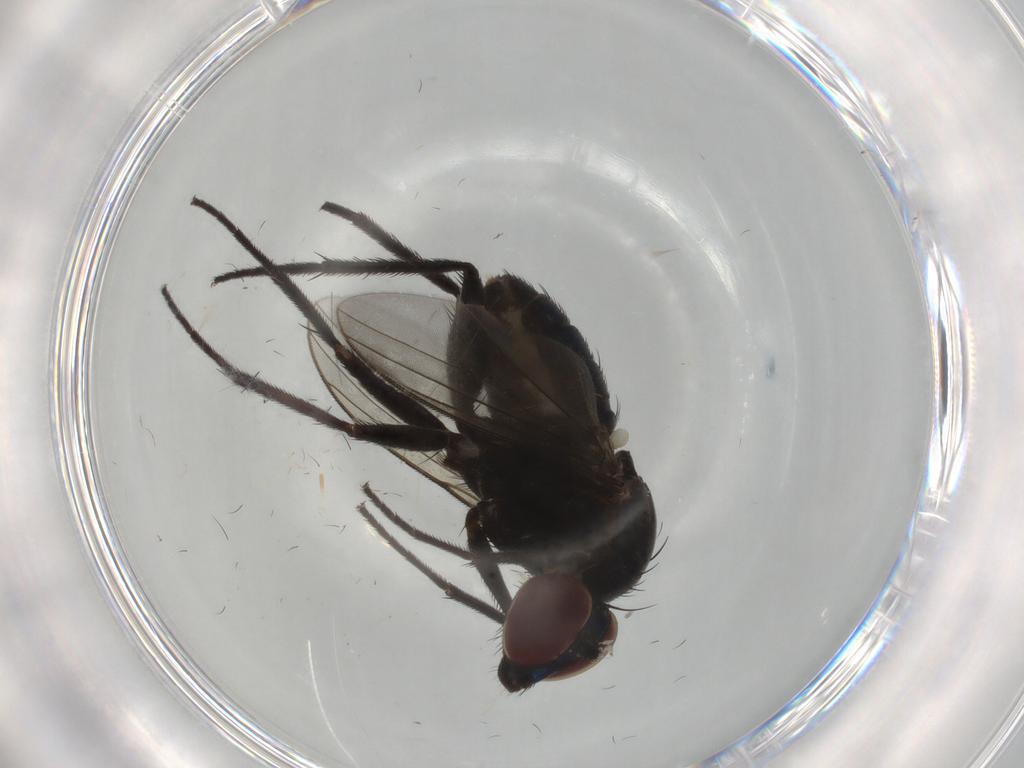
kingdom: Animalia
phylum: Arthropoda
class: Insecta
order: Diptera
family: Dolichopodidae
